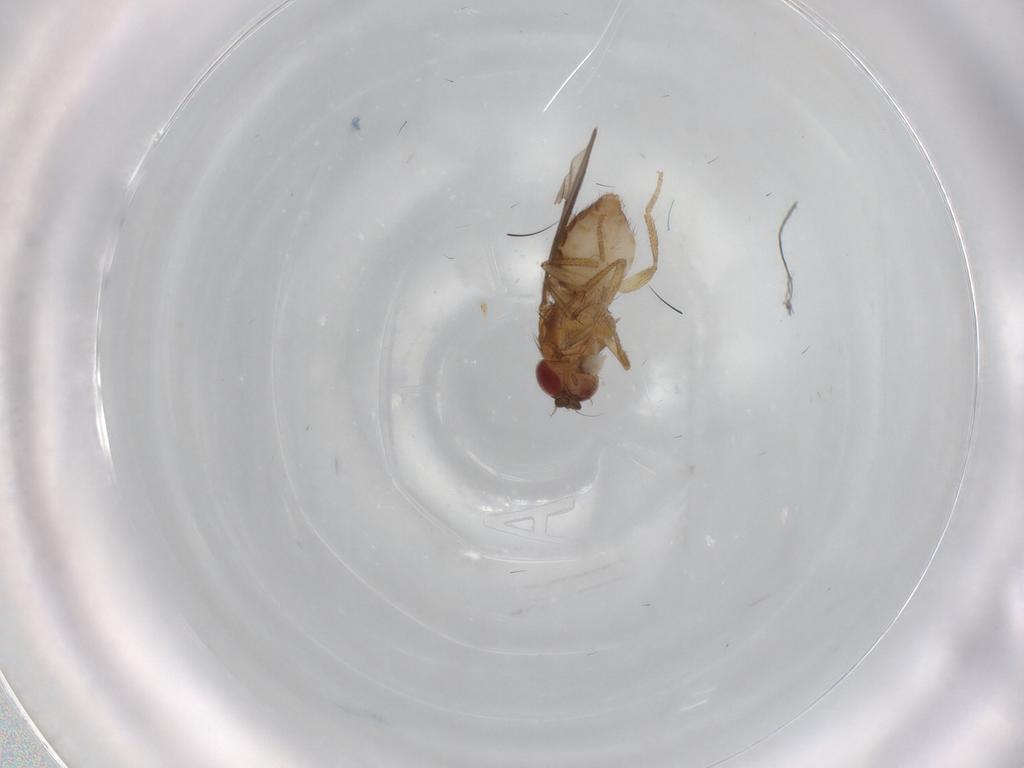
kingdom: Animalia
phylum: Arthropoda
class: Insecta
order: Diptera
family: Drosophilidae
